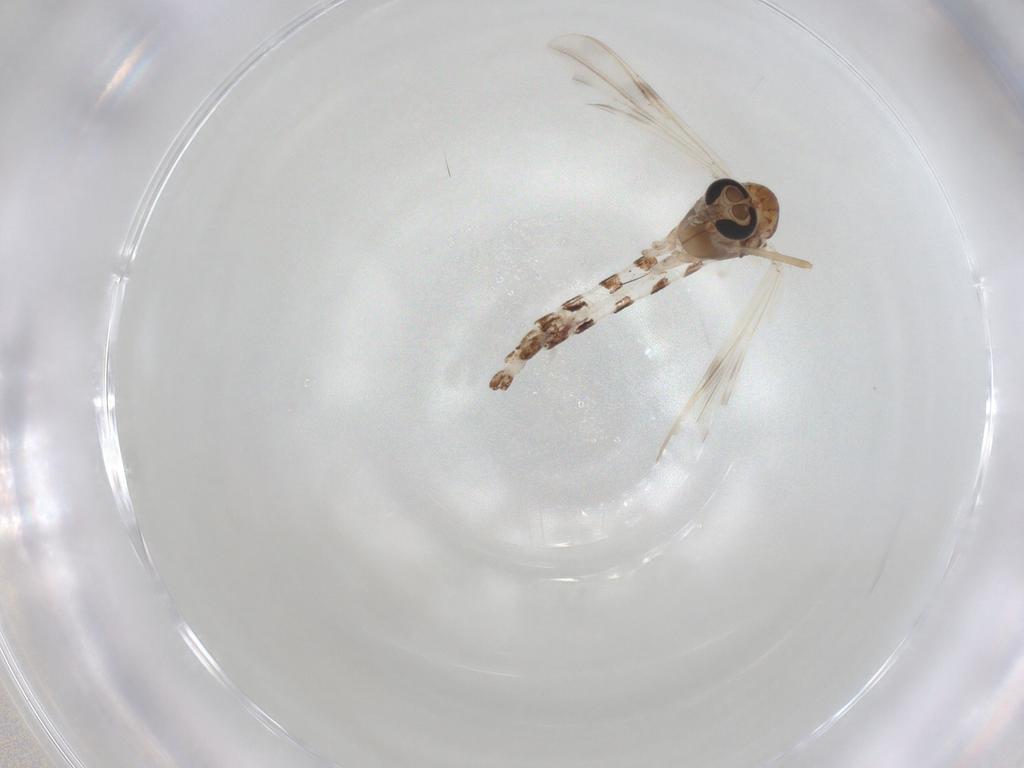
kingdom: Animalia
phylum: Arthropoda
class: Insecta
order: Diptera
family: Chironomidae
